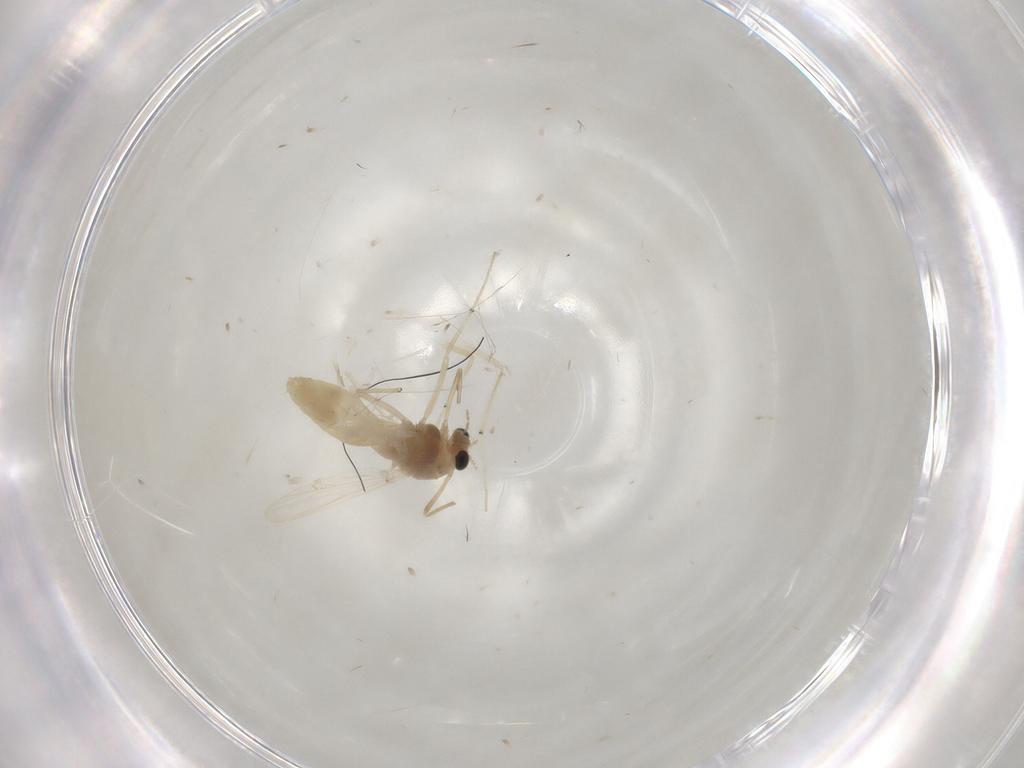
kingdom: Animalia
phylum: Arthropoda
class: Insecta
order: Diptera
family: Chironomidae
